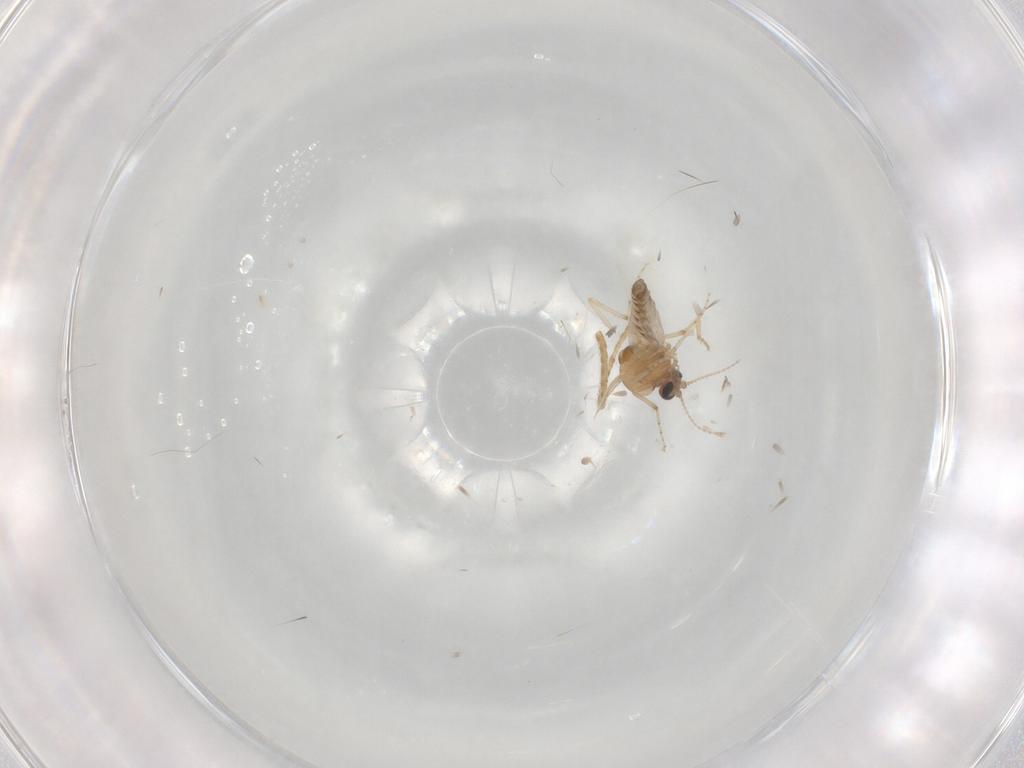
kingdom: Animalia
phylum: Arthropoda
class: Insecta
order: Diptera
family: Ceratopogonidae
